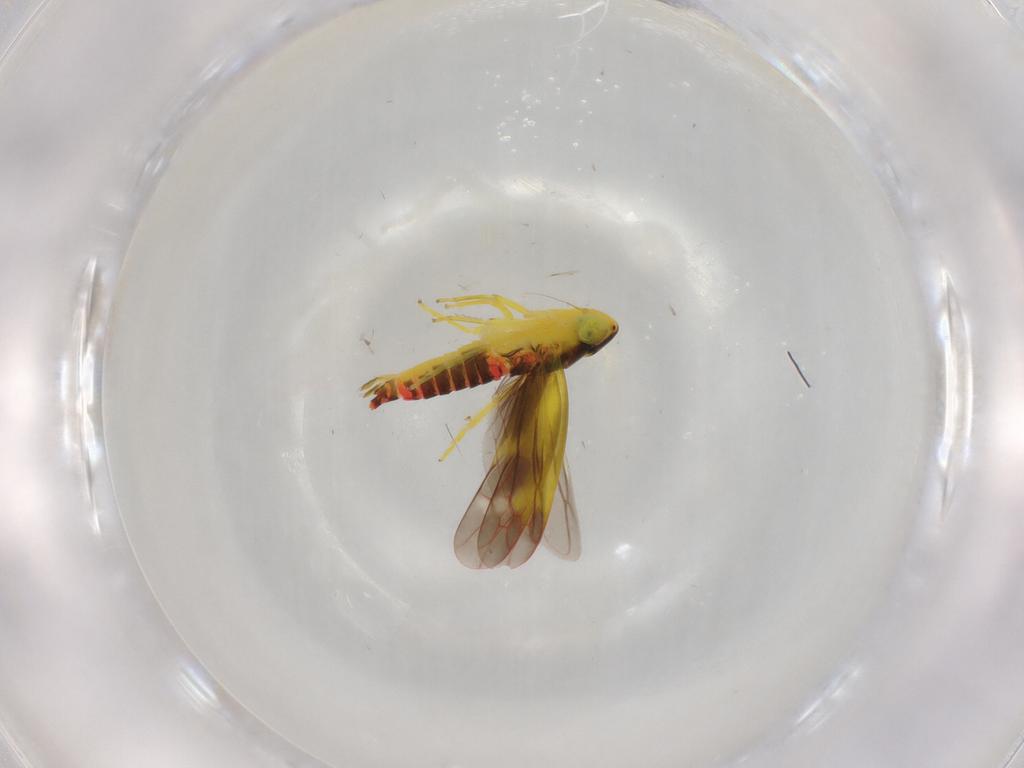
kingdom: Animalia
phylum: Arthropoda
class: Insecta
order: Hemiptera
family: Cicadellidae
